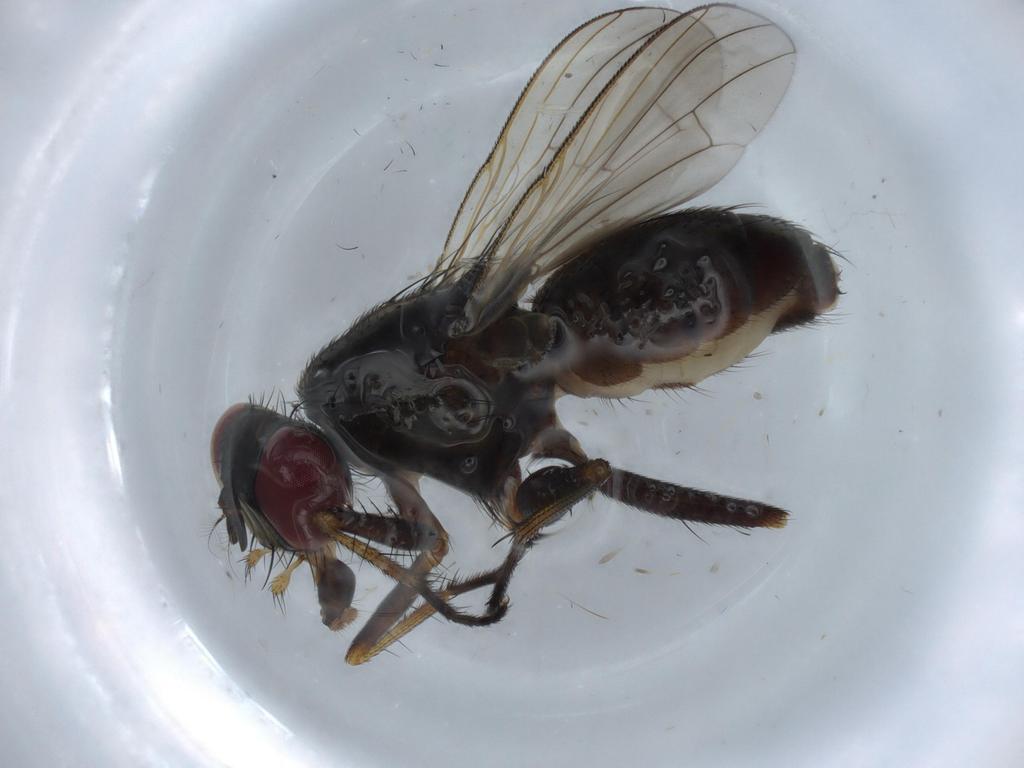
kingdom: Animalia
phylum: Arthropoda
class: Insecta
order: Diptera
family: Muscidae
